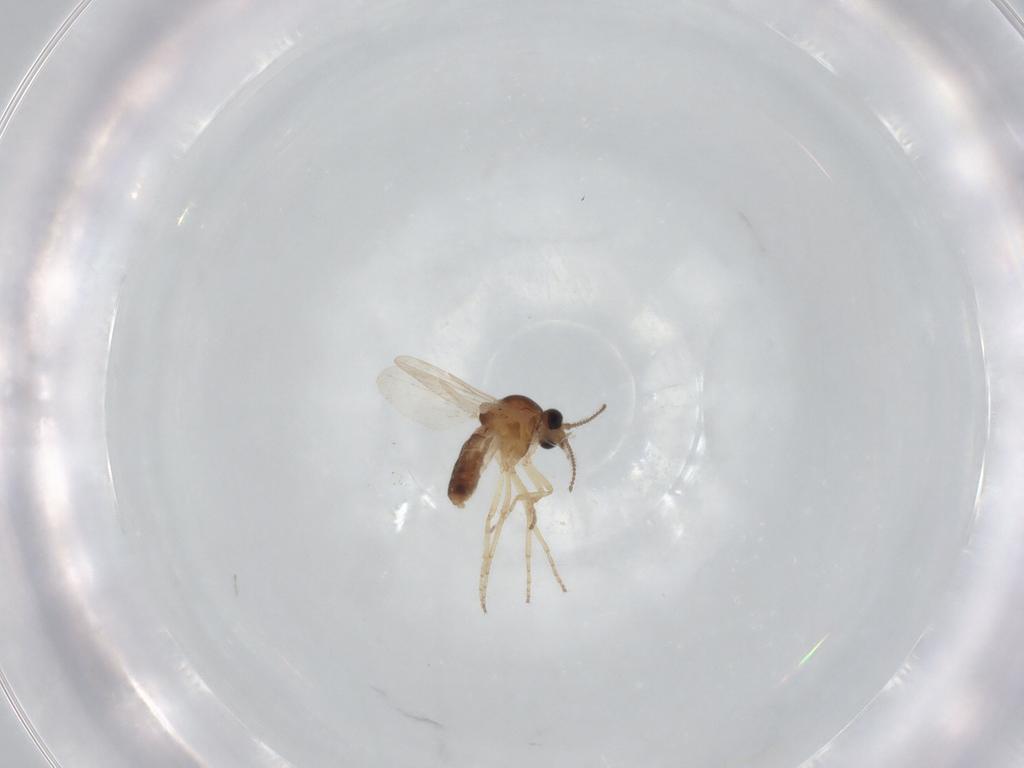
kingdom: Animalia
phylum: Arthropoda
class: Insecta
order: Diptera
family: Ceratopogonidae
